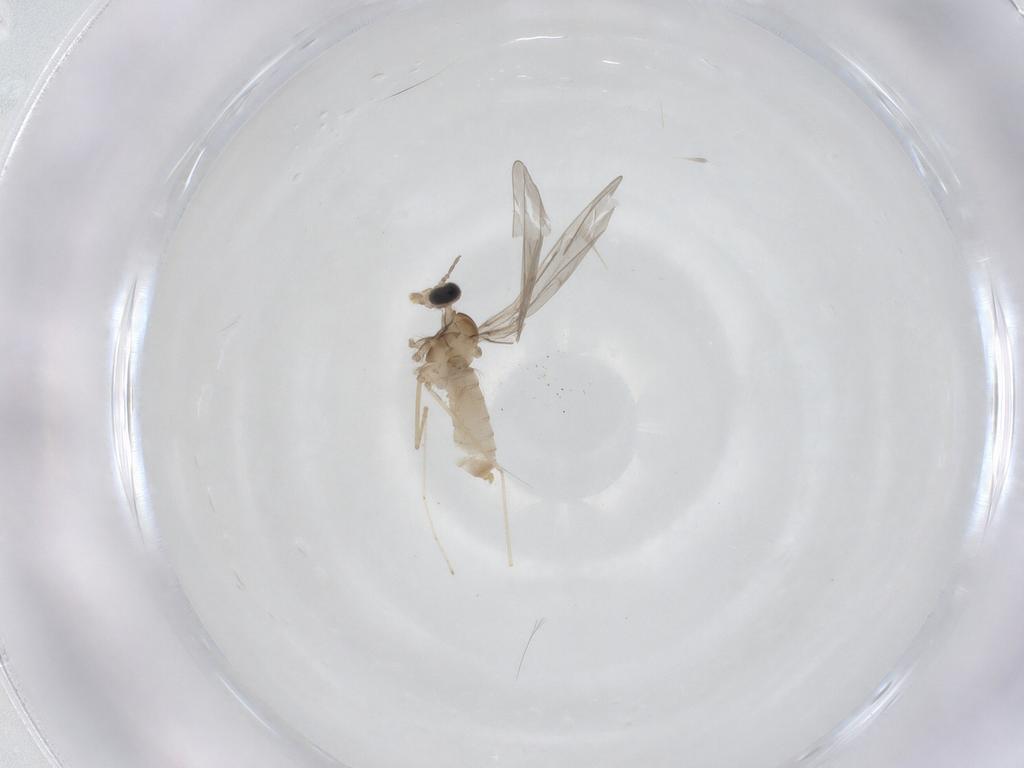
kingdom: Animalia
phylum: Arthropoda
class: Insecta
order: Diptera
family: Cecidomyiidae
